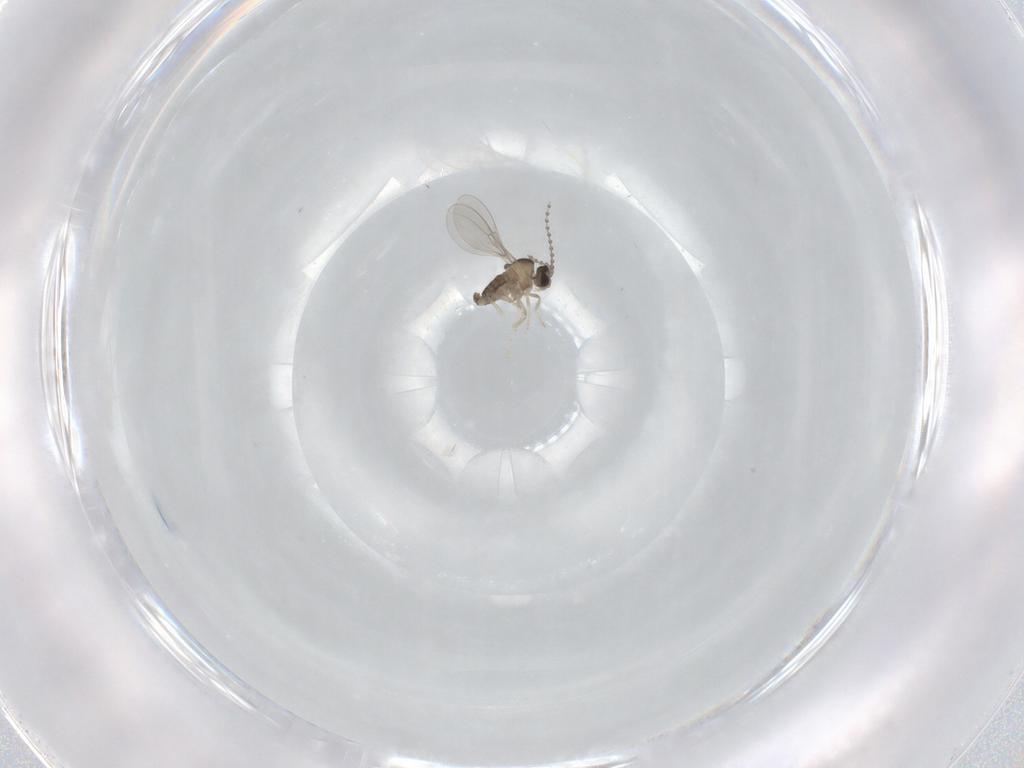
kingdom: Animalia
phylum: Arthropoda
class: Insecta
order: Diptera
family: Cecidomyiidae
